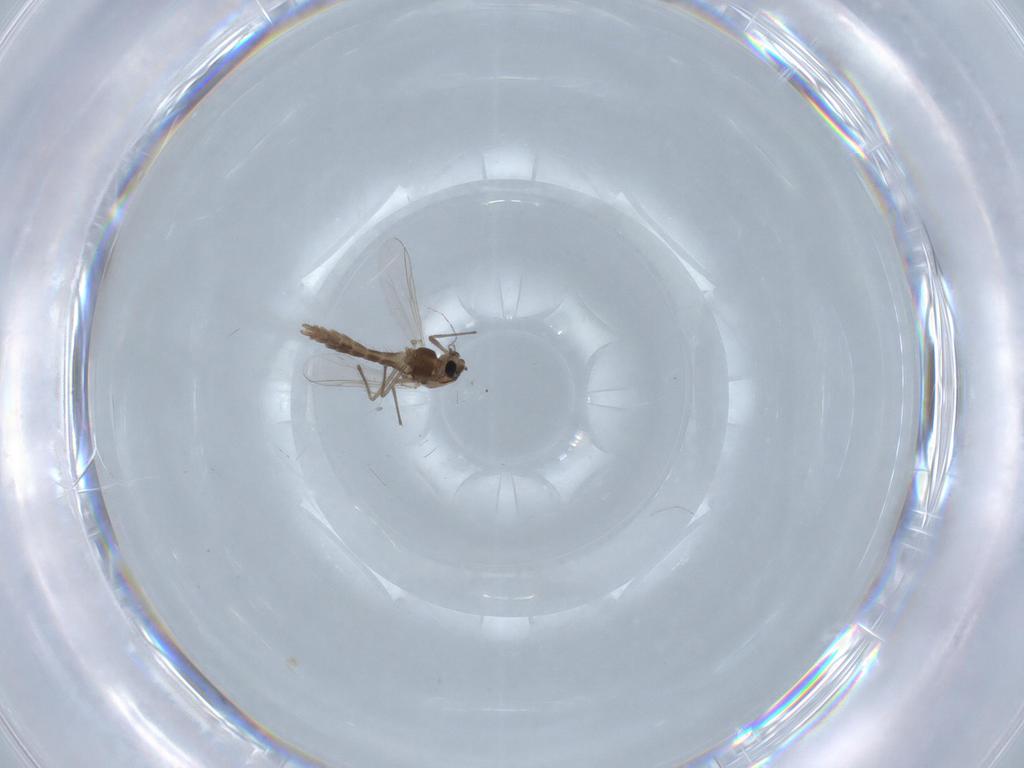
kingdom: Animalia
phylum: Arthropoda
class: Insecta
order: Diptera
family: Chironomidae
